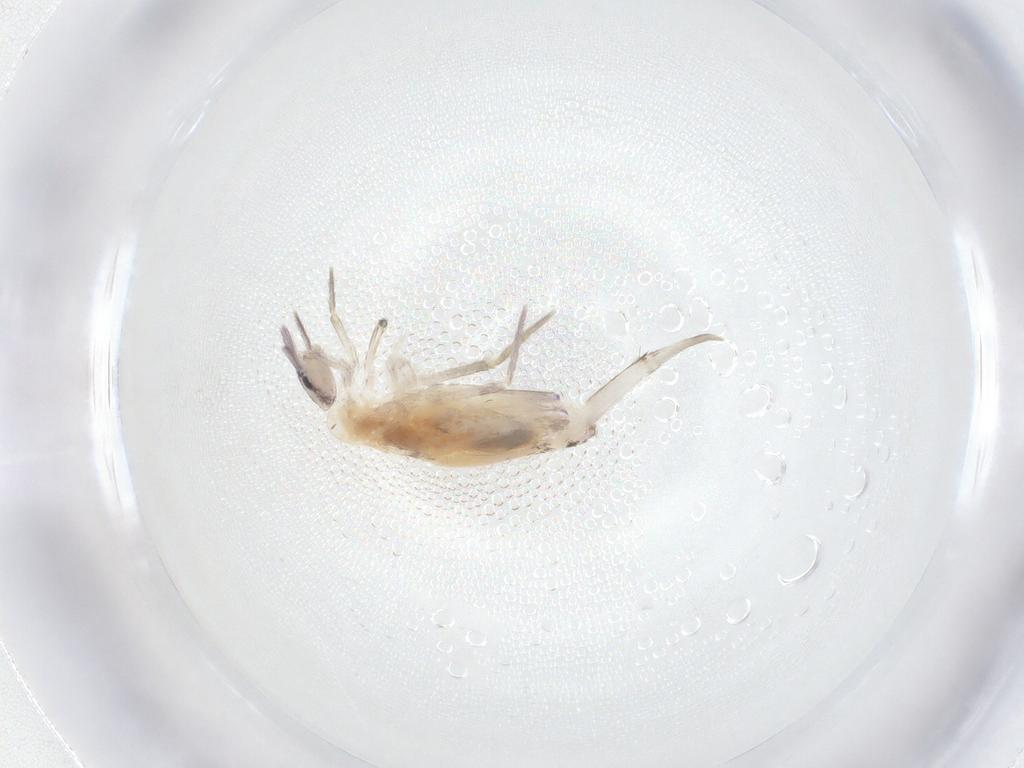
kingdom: Animalia
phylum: Arthropoda
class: Collembola
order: Entomobryomorpha
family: Entomobryidae
